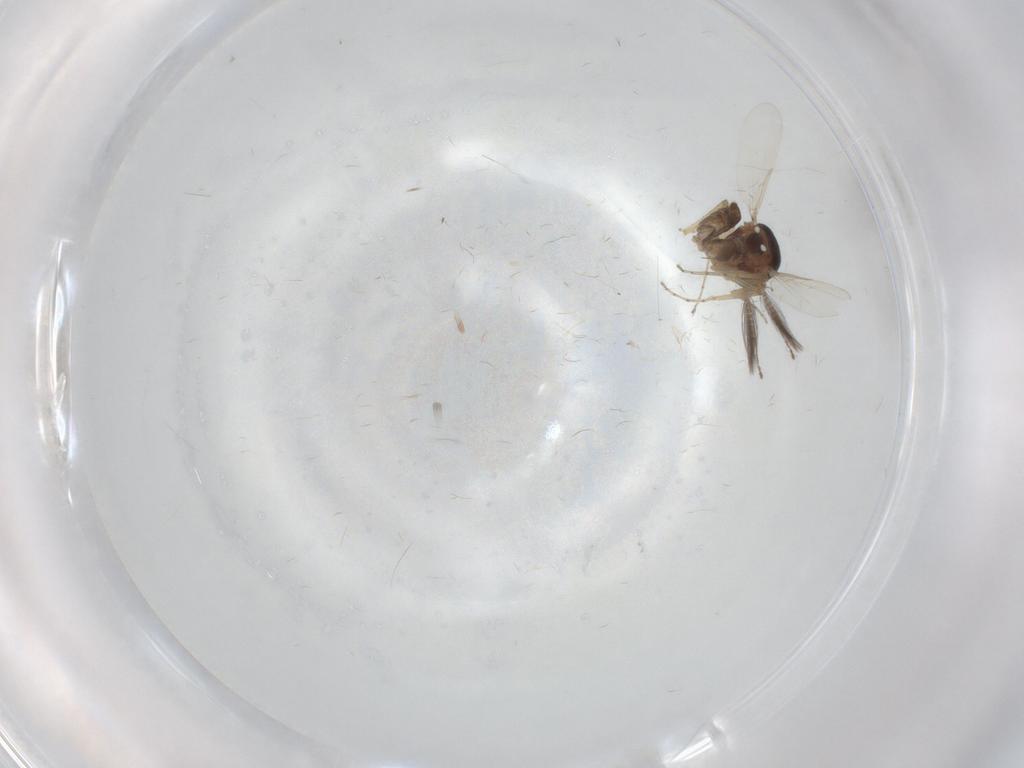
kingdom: Animalia
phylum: Arthropoda
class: Insecta
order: Diptera
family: Ceratopogonidae
